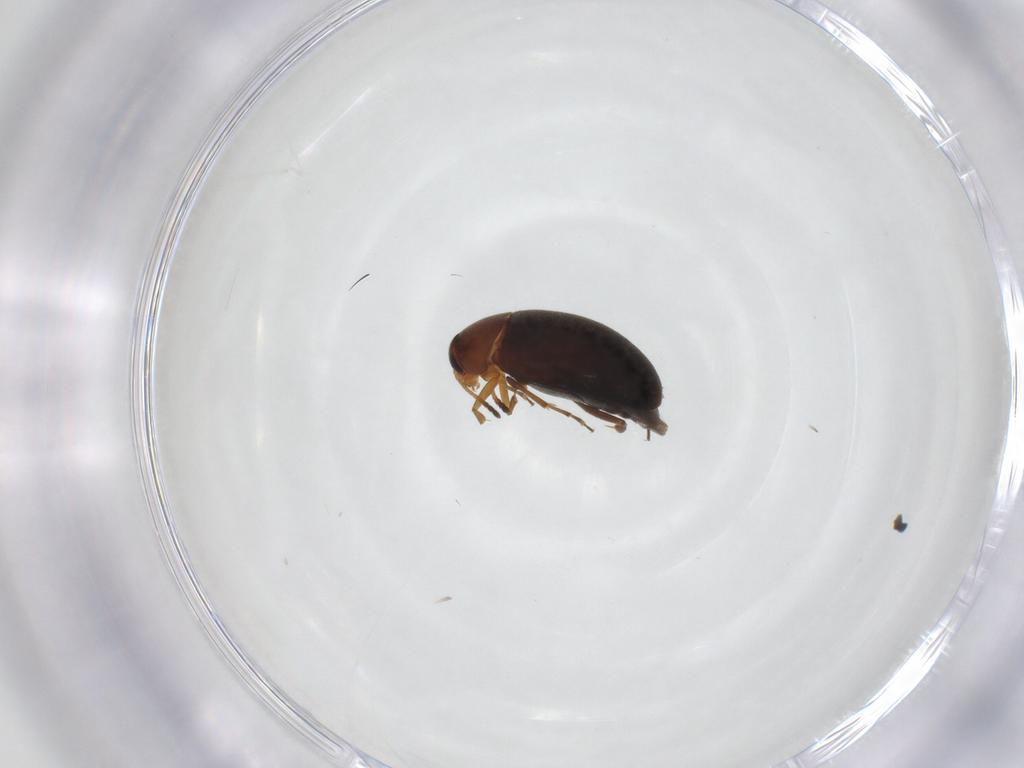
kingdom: Animalia
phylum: Arthropoda
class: Insecta
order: Coleoptera
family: Scraptiidae
